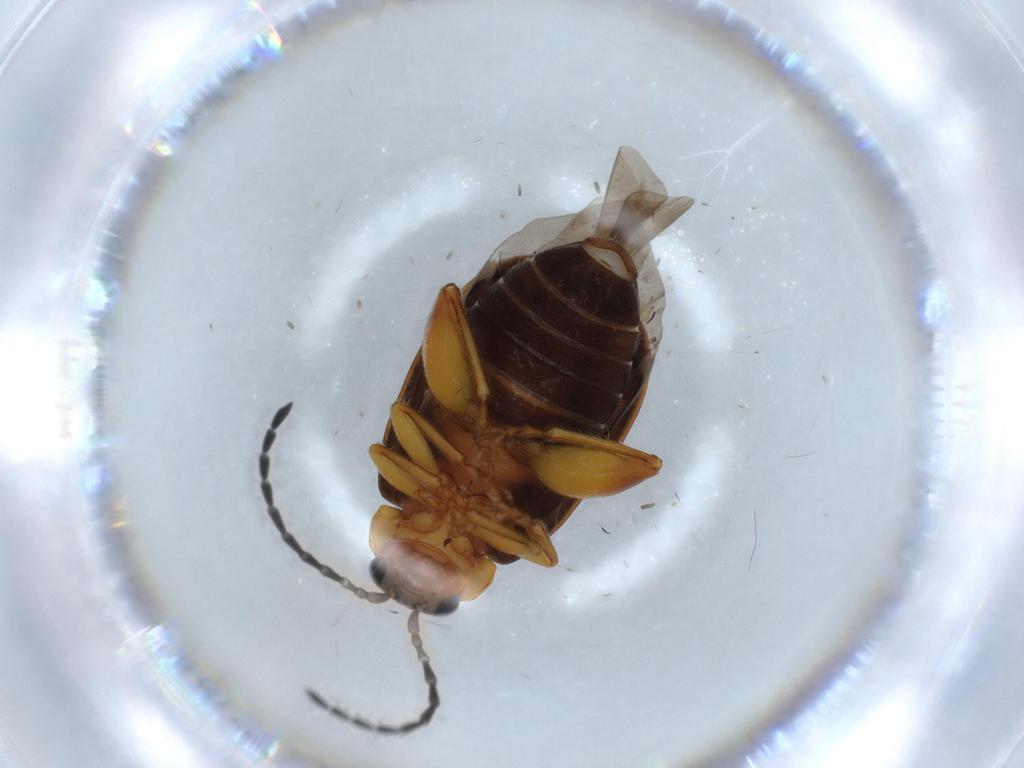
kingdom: Animalia
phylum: Arthropoda
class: Insecta
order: Coleoptera
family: Chrysomelidae
